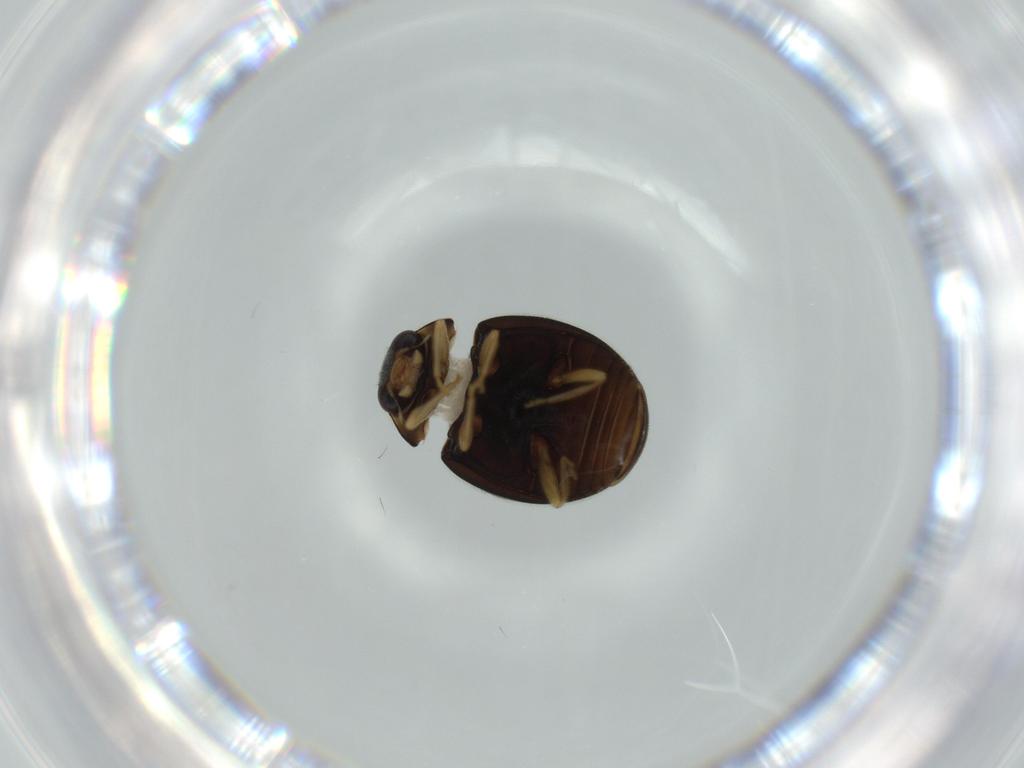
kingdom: Animalia
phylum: Arthropoda
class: Insecta
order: Coleoptera
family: Coccinellidae
